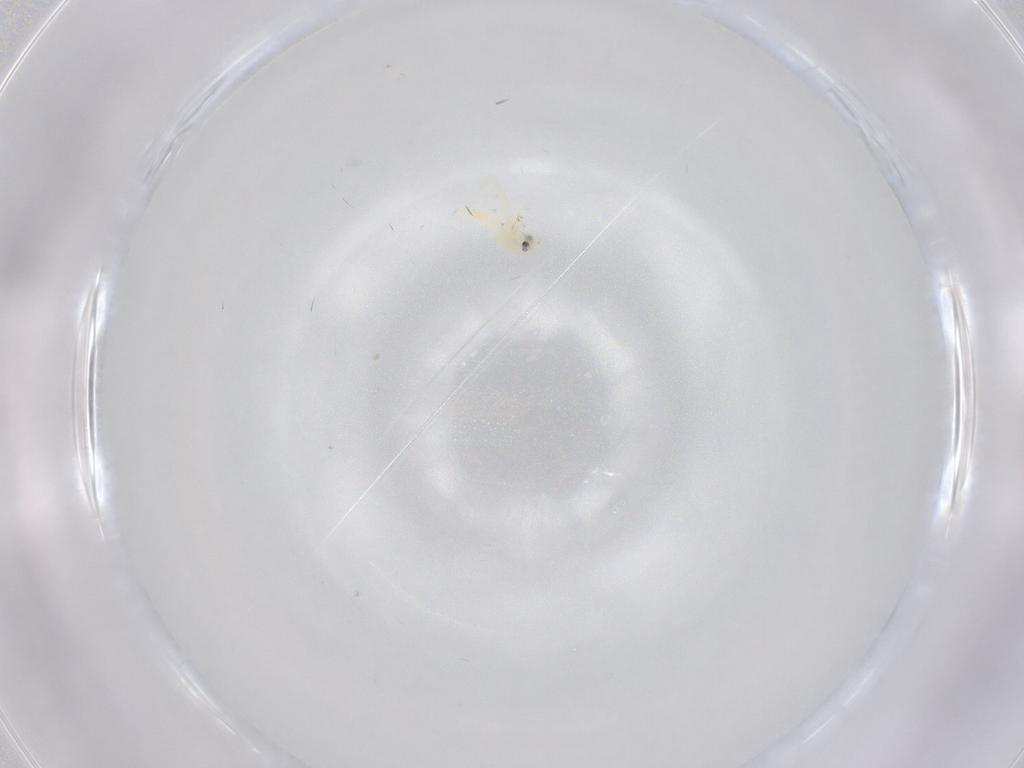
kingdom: Animalia
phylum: Arthropoda
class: Insecta
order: Hemiptera
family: Aleyrodidae
